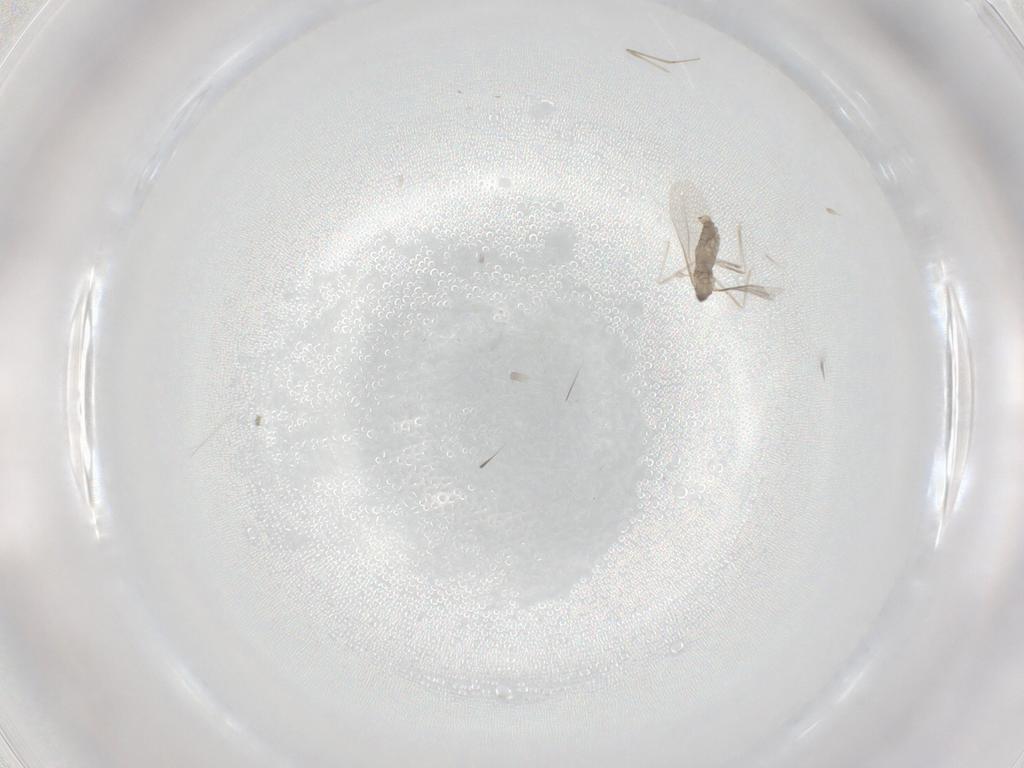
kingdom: Animalia
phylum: Arthropoda
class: Insecta
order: Diptera
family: Cecidomyiidae
